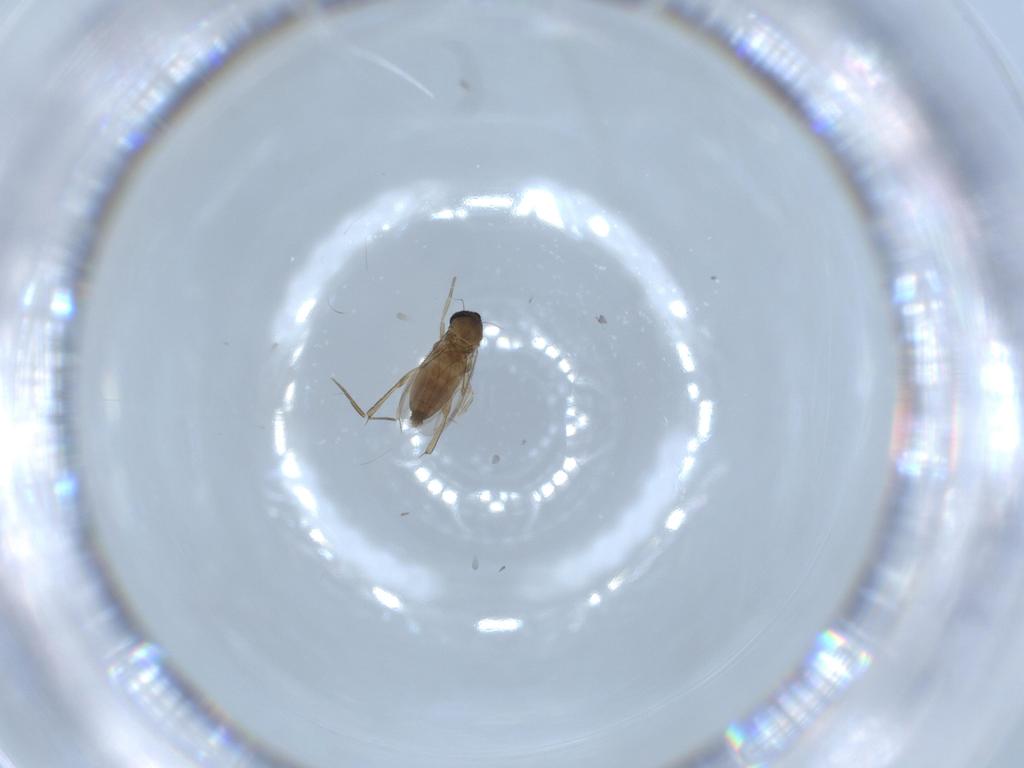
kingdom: Animalia
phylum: Arthropoda
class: Insecta
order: Diptera
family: Phoridae
